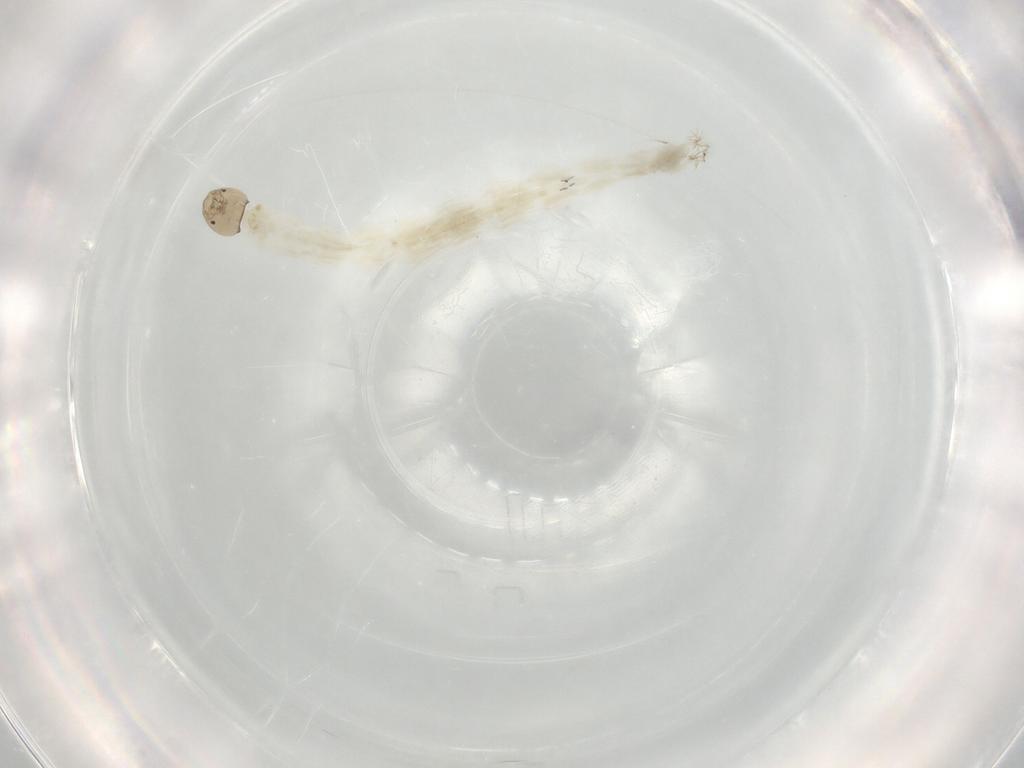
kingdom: Animalia
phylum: Arthropoda
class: Insecta
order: Diptera
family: Chironomidae
